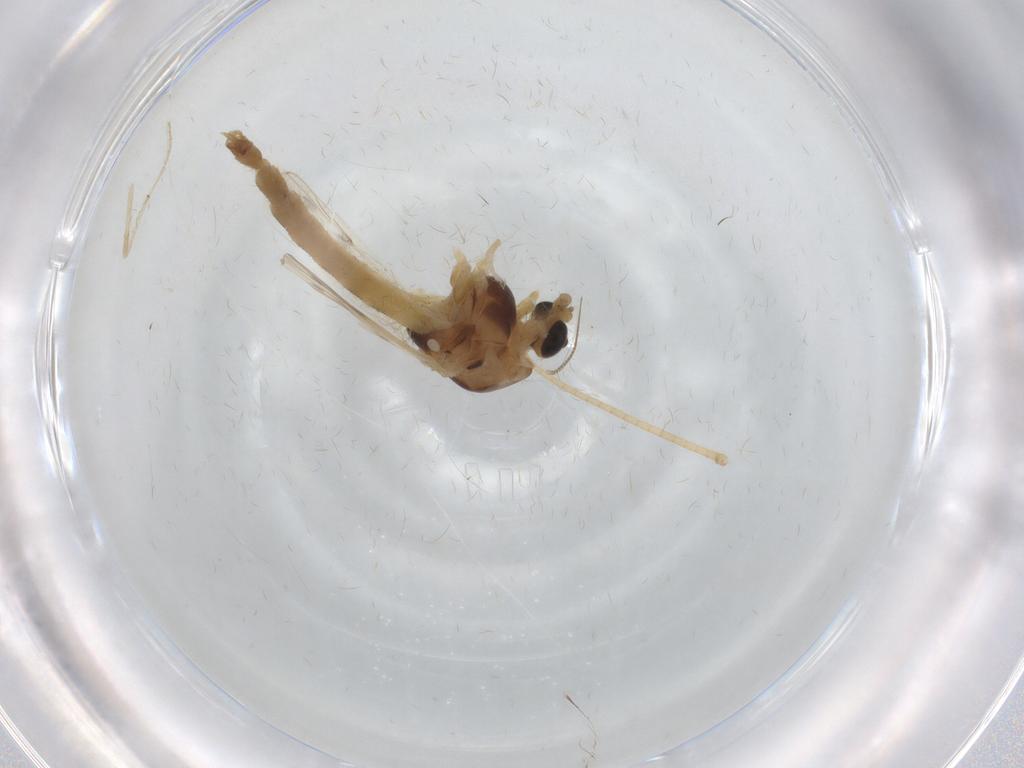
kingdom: Animalia
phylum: Arthropoda
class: Insecta
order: Diptera
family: Chironomidae
